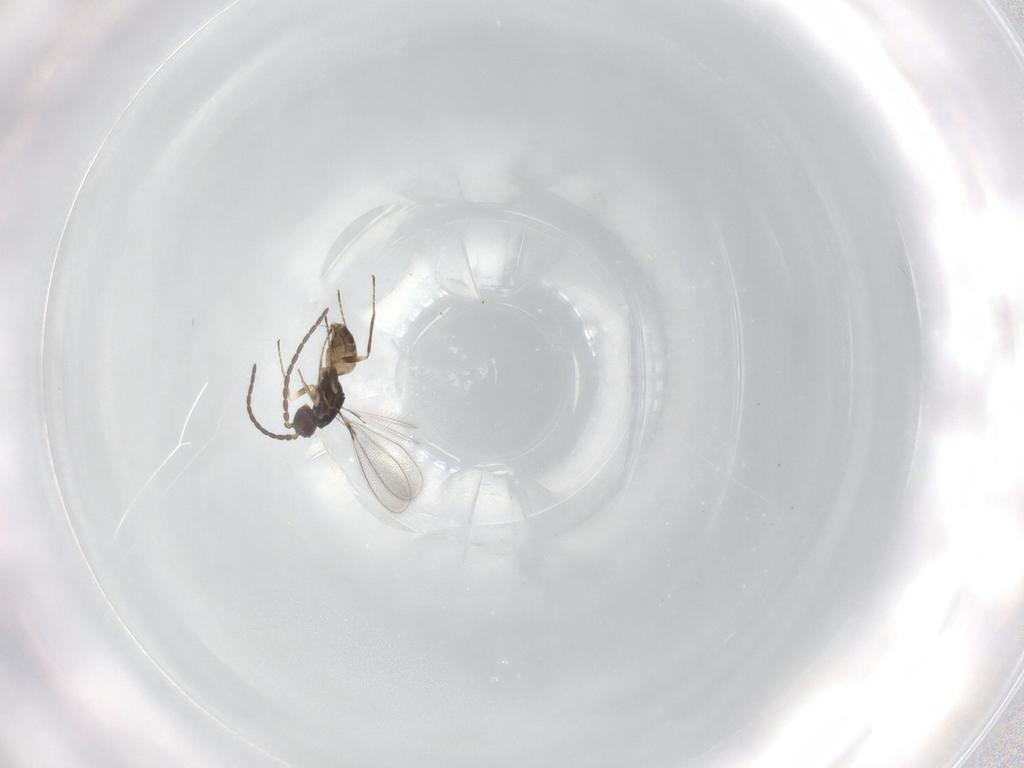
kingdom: Animalia
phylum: Arthropoda
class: Insecta
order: Hymenoptera
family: Mymaridae
